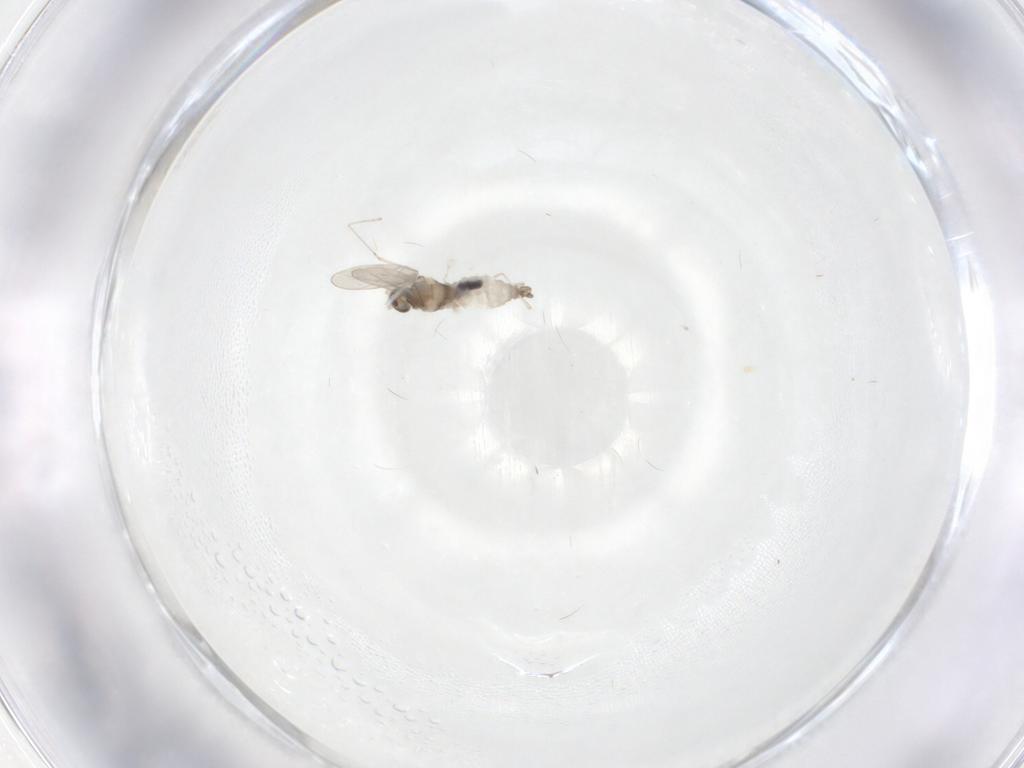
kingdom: Animalia
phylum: Arthropoda
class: Insecta
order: Diptera
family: Cecidomyiidae
